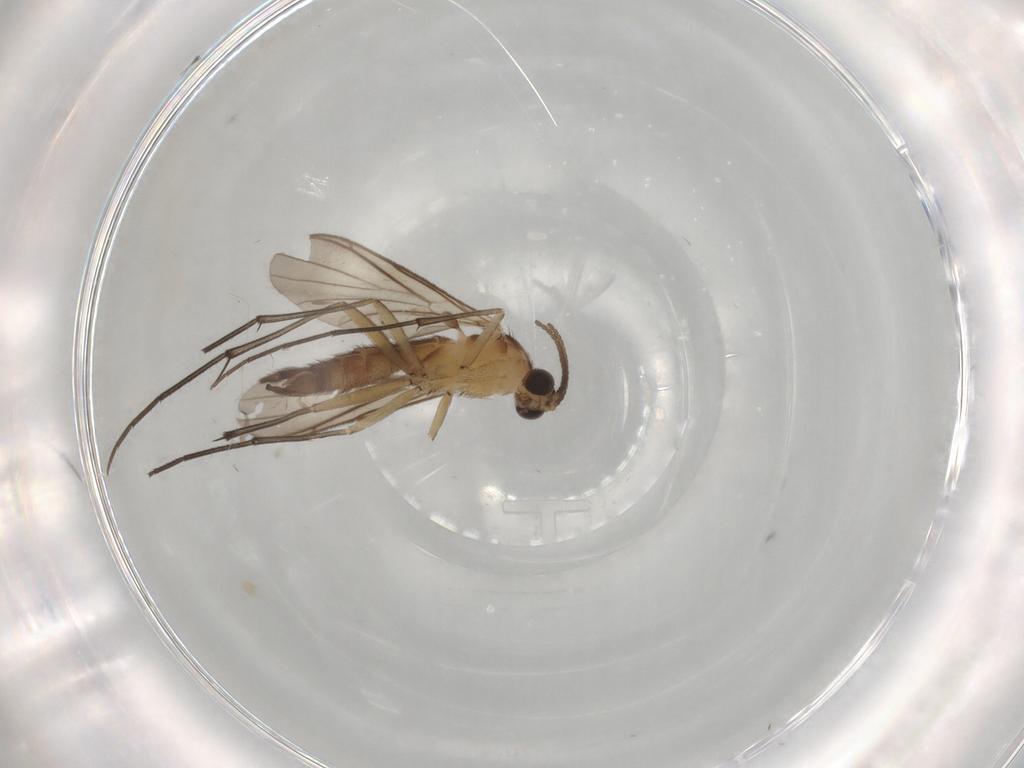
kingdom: Animalia
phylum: Arthropoda
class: Insecta
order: Diptera
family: Keroplatidae
